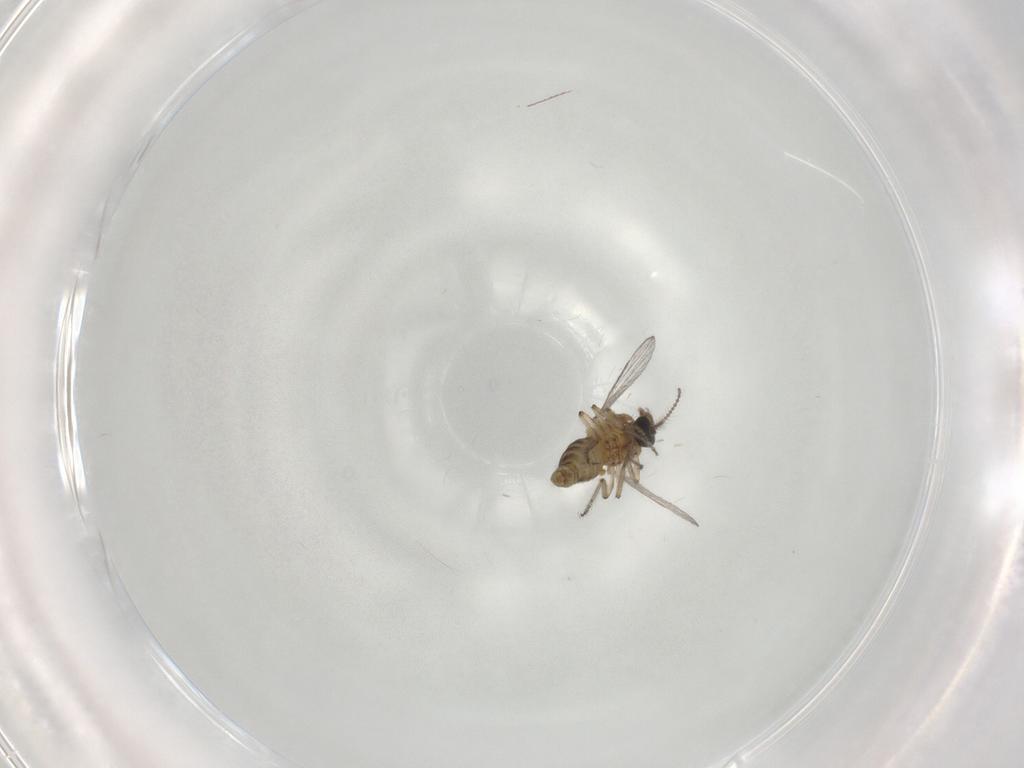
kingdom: Animalia
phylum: Arthropoda
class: Insecta
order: Diptera
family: Ceratopogonidae
